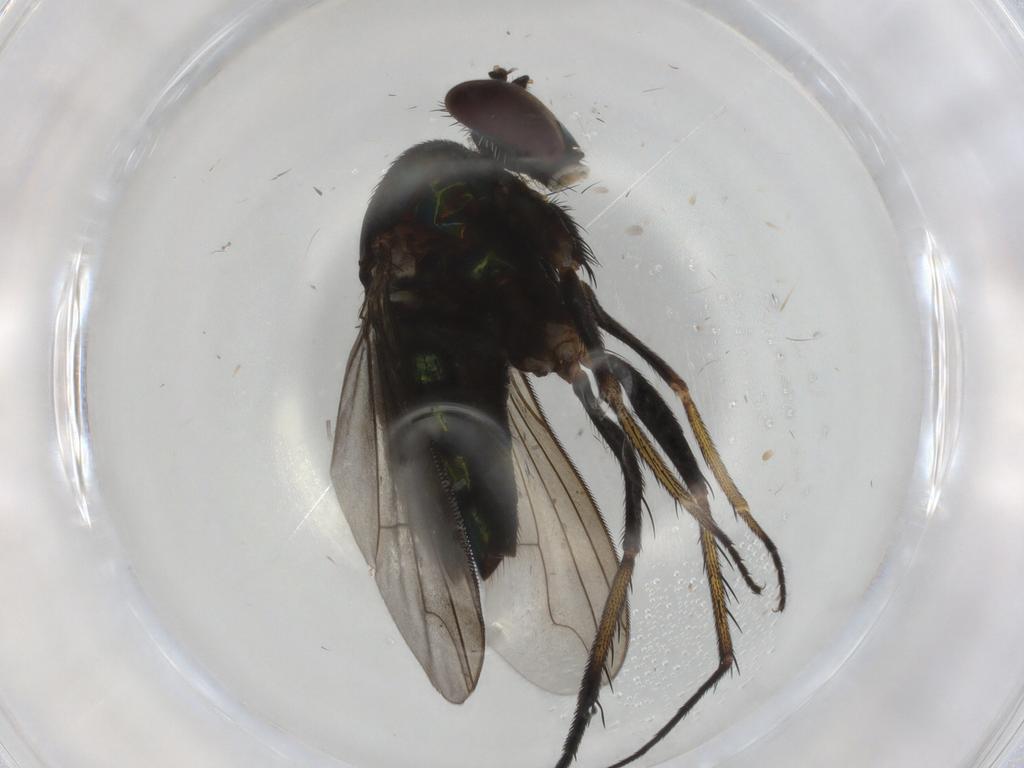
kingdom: Animalia
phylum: Arthropoda
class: Insecta
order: Diptera
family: Dolichopodidae
